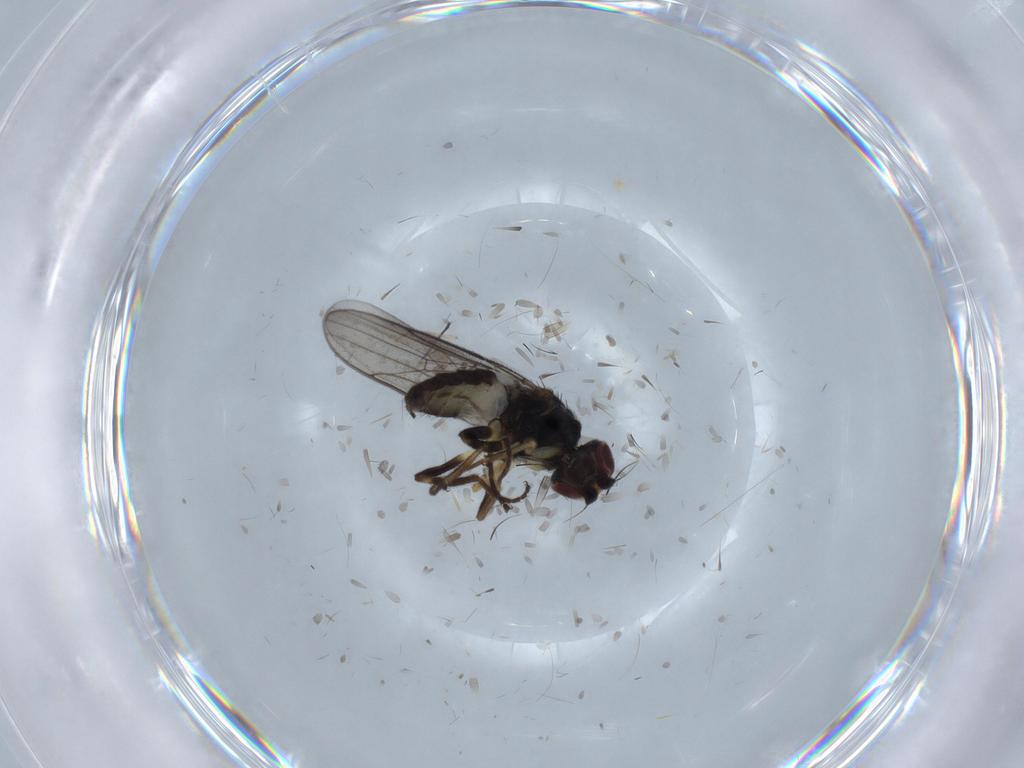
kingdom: Animalia
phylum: Arthropoda
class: Insecta
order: Diptera
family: Chloropidae
